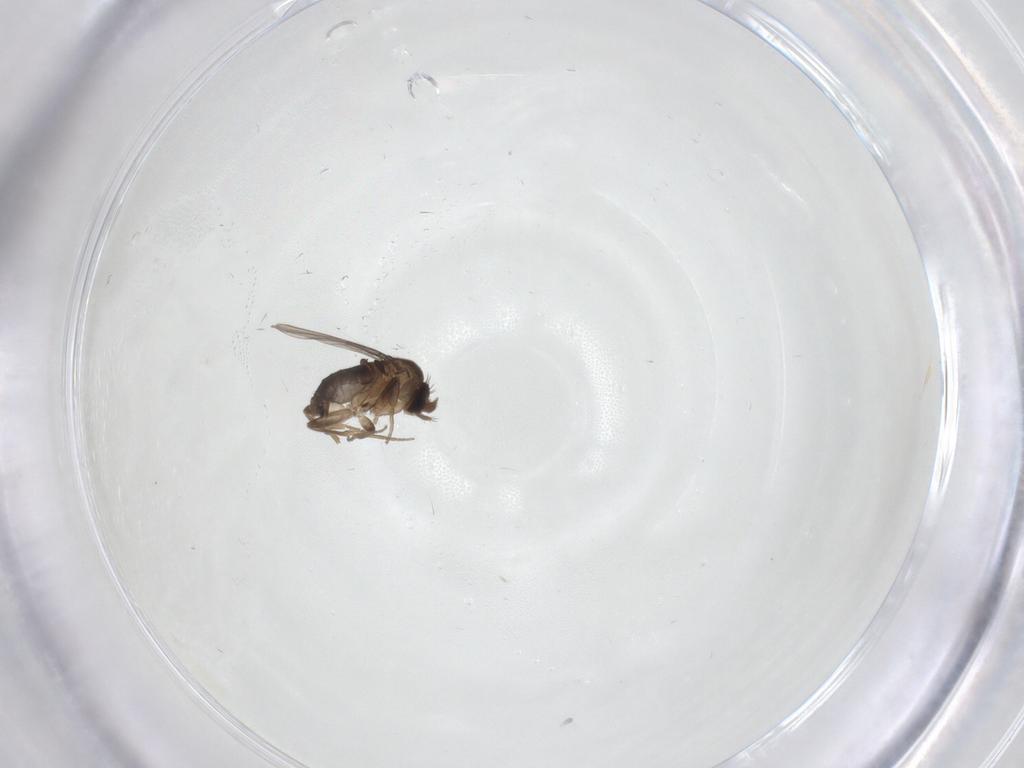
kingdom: Animalia
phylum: Arthropoda
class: Insecta
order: Diptera
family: Phoridae
